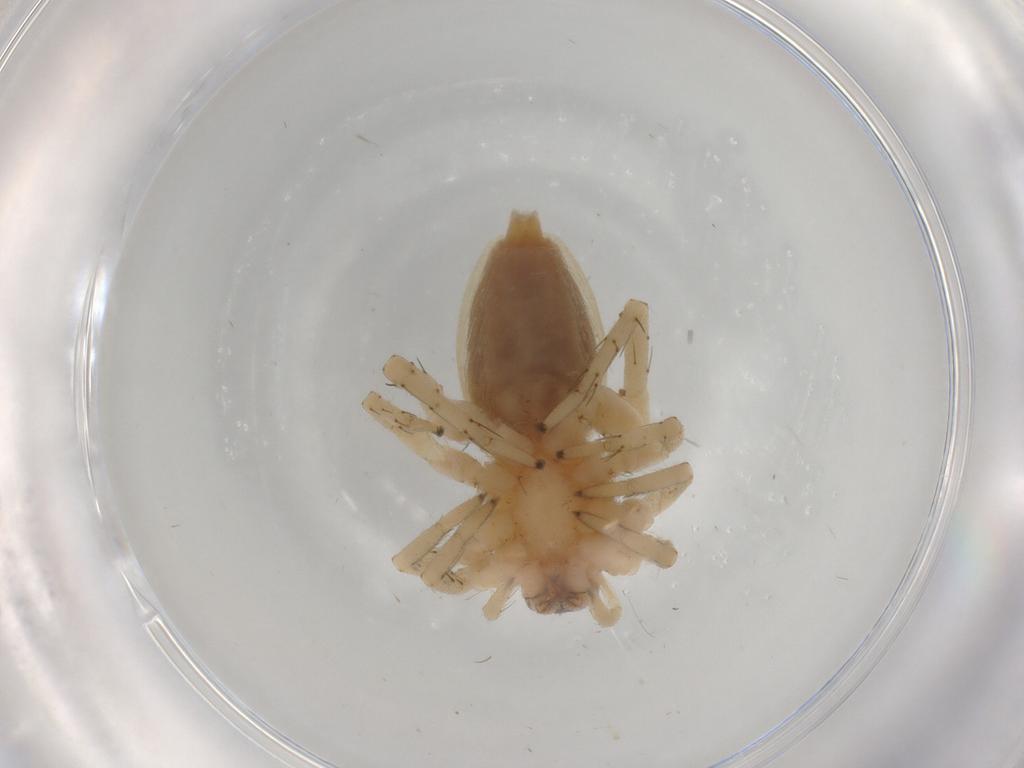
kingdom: Animalia
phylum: Arthropoda
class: Arachnida
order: Araneae
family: Clubionidae
